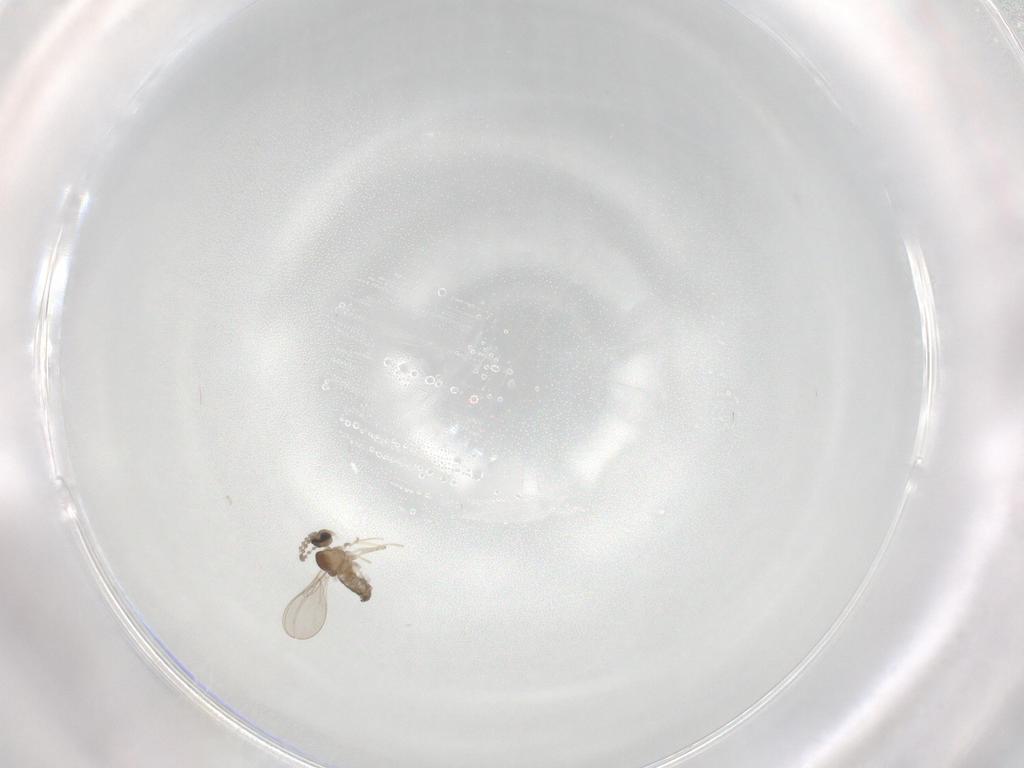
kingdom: Animalia
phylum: Arthropoda
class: Insecta
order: Diptera
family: Cecidomyiidae
